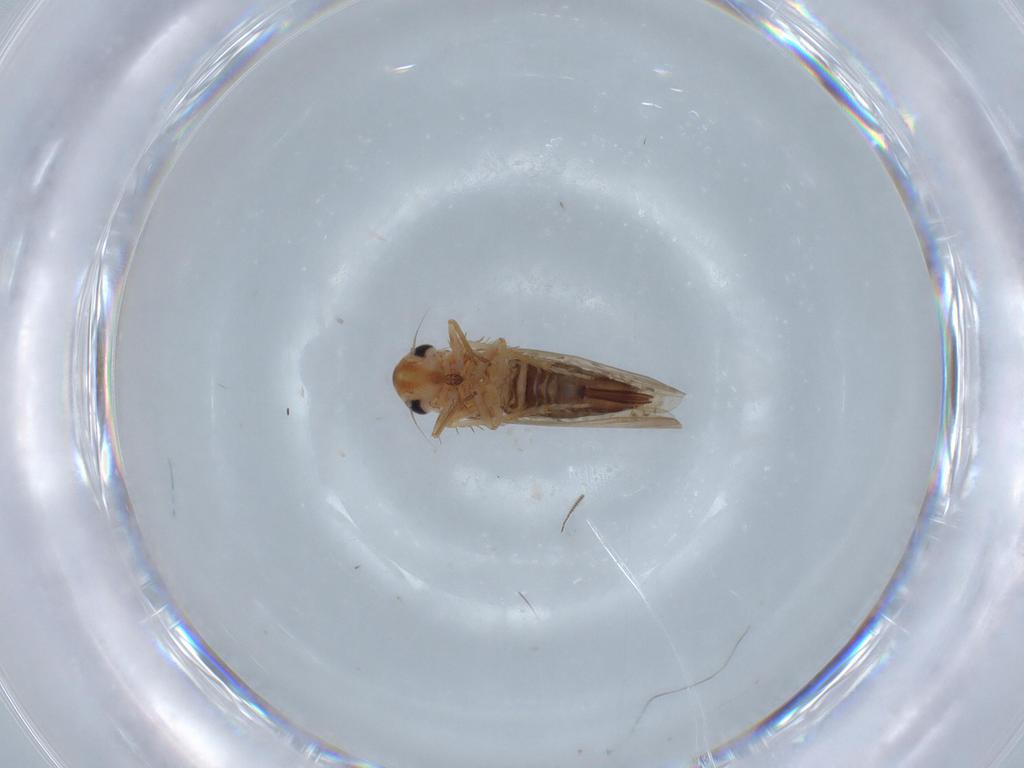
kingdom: Animalia
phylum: Arthropoda
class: Insecta
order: Hemiptera
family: Cicadellidae
